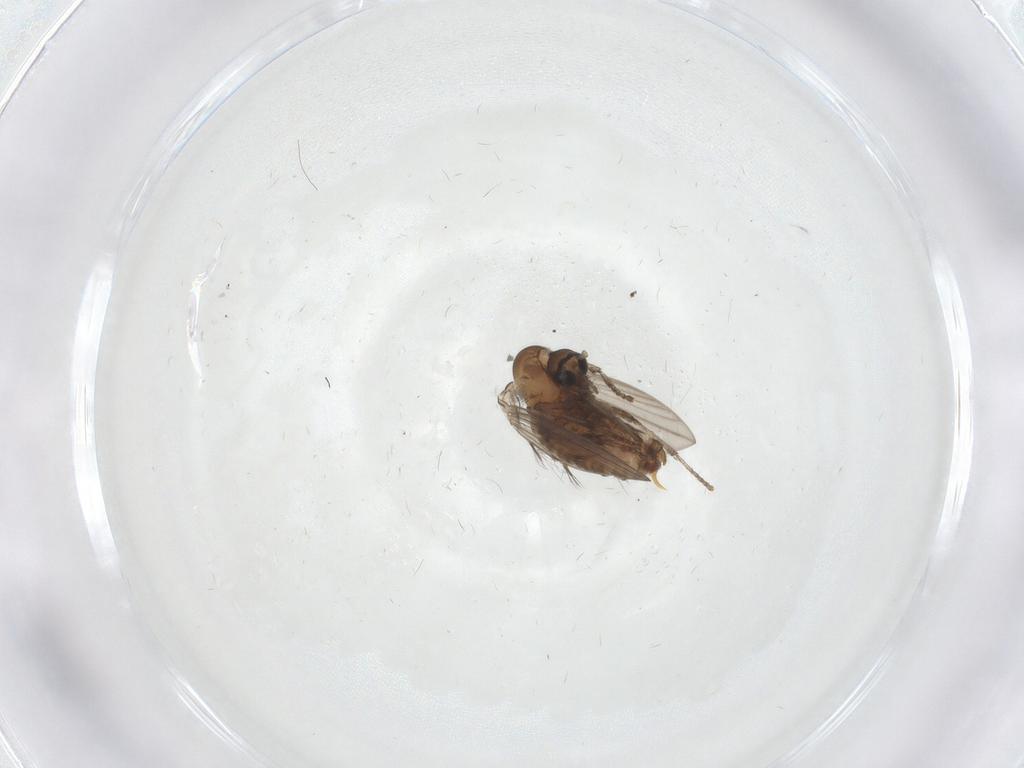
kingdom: Animalia
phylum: Arthropoda
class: Insecta
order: Diptera
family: Psychodidae
